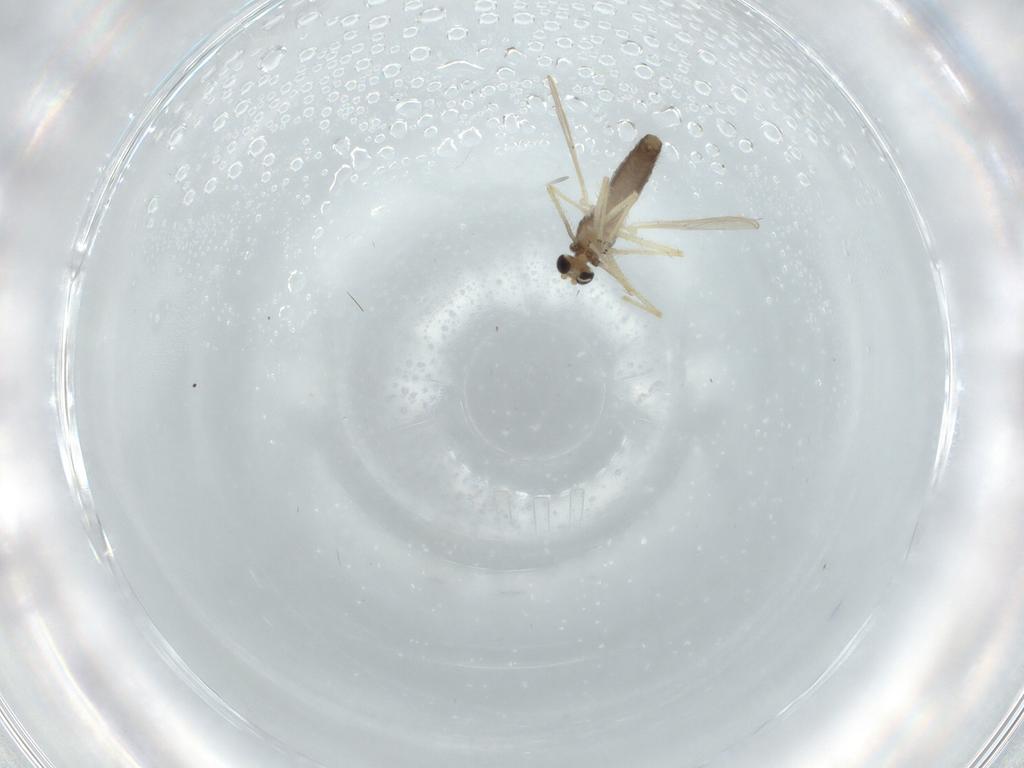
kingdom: Animalia
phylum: Arthropoda
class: Insecta
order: Diptera
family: Chironomidae
